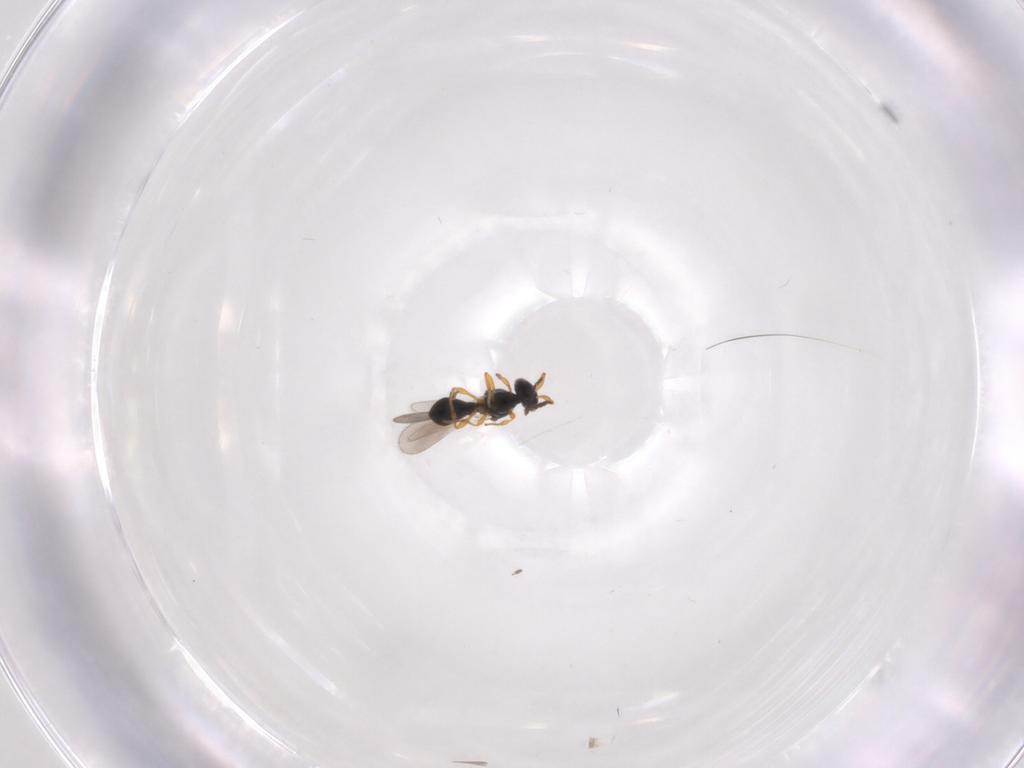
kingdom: Animalia
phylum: Arthropoda
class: Insecta
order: Hymenoptera
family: Platygastridae
